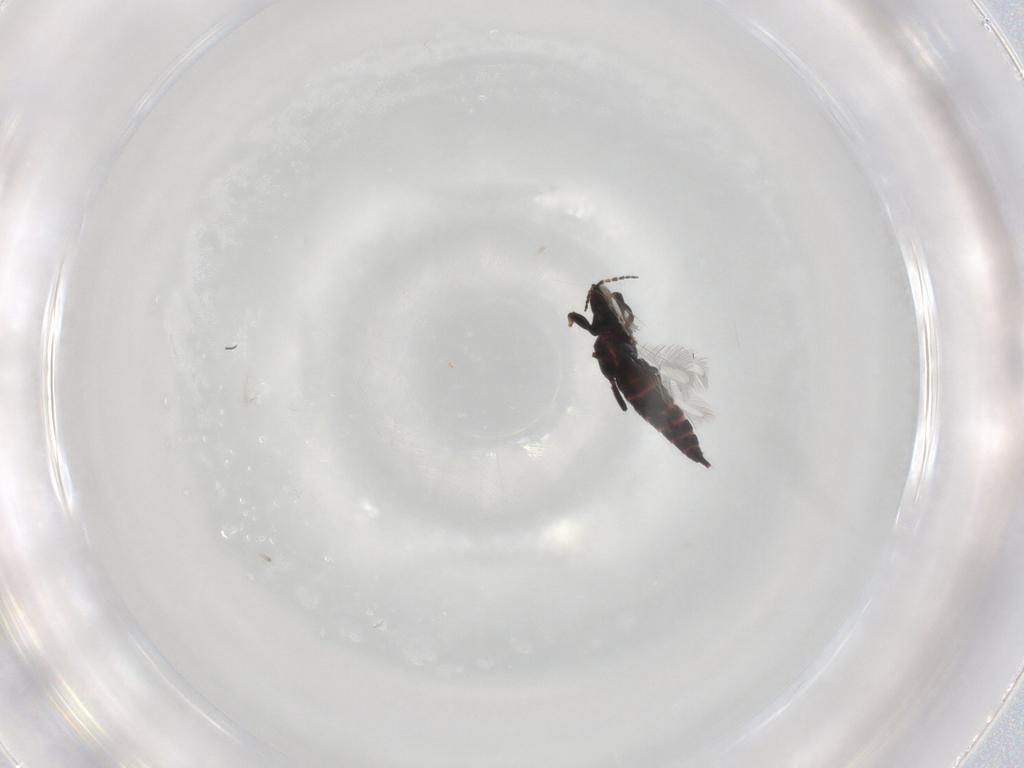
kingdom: Animalia
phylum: Arthropoda
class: Insecta
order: Thysanoptera
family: Phlaeothripidae
